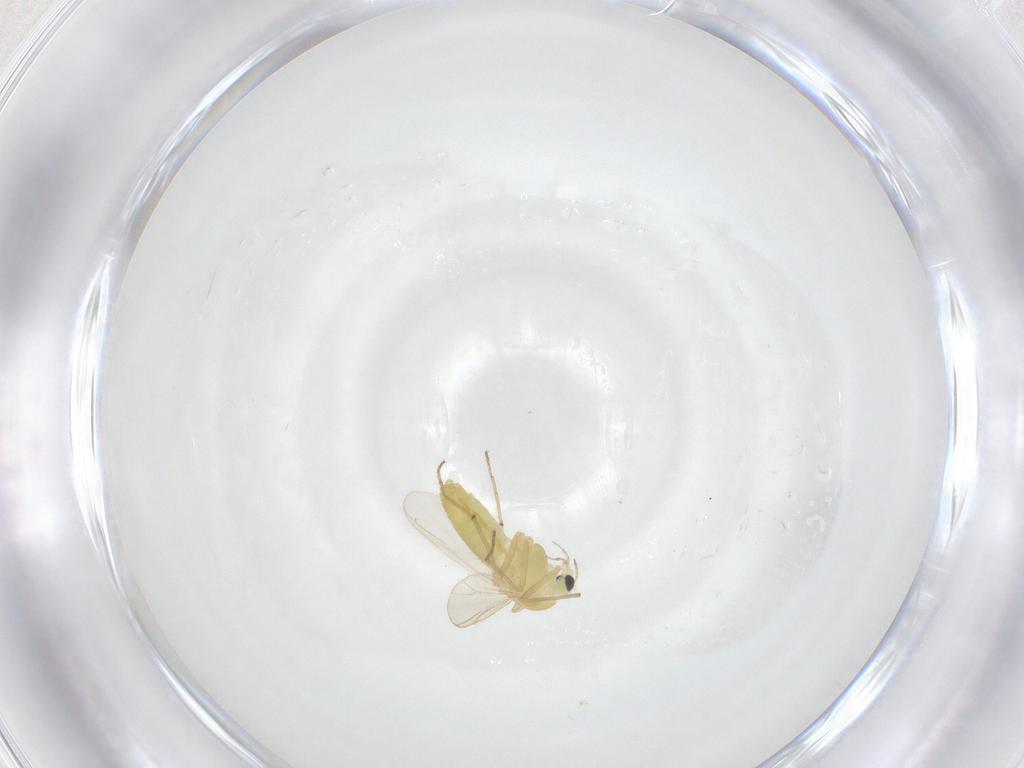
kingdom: Animalia
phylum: Arthropoda
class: Insecta
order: Diptera
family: Chironomidae
